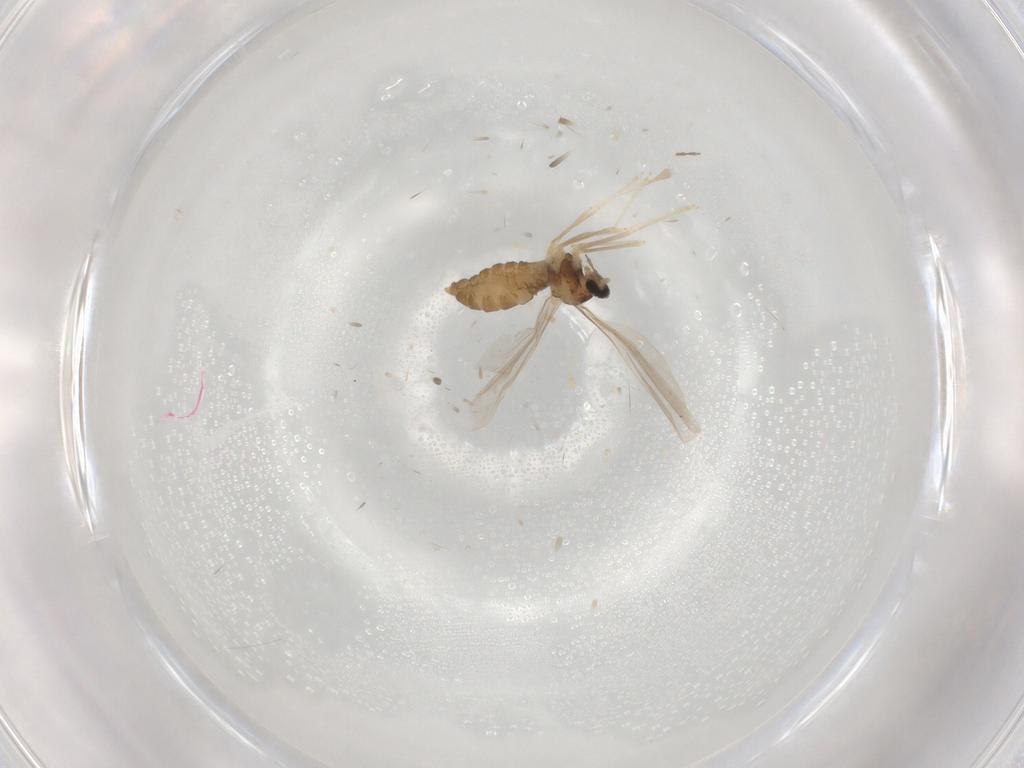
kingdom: Animalia
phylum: Arthropoda
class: Insecta
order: Diptera
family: Cecidomyiidae
